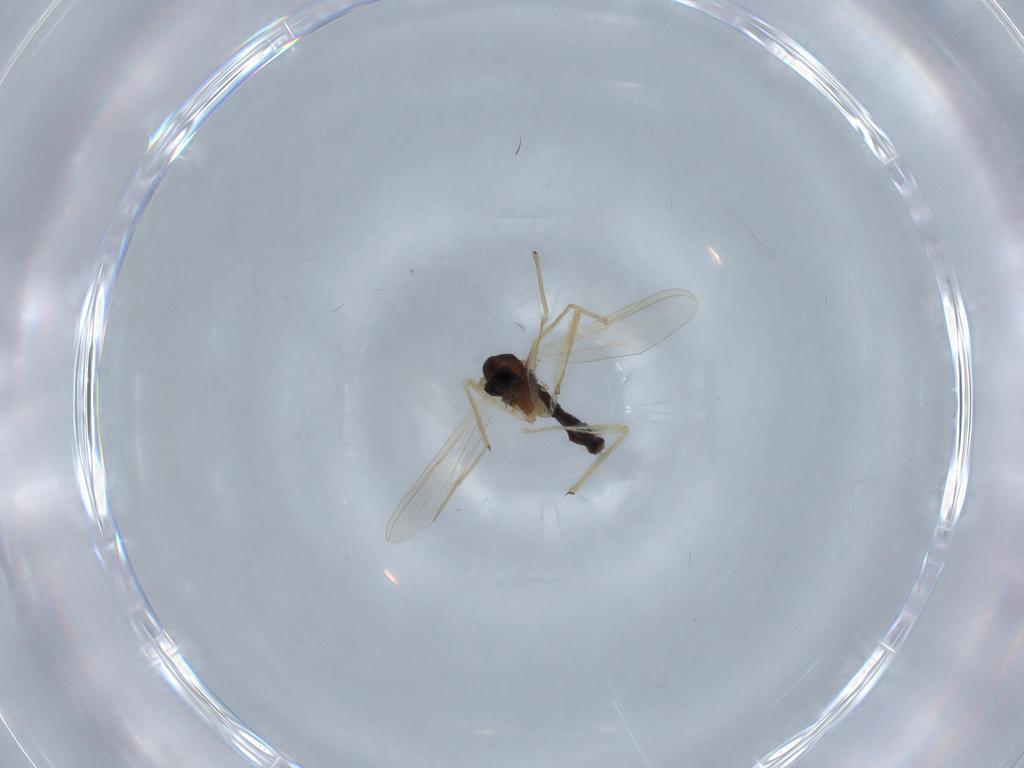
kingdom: Animalia
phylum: Arthropoda
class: Insecta
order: Diptera
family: Chironomidae
